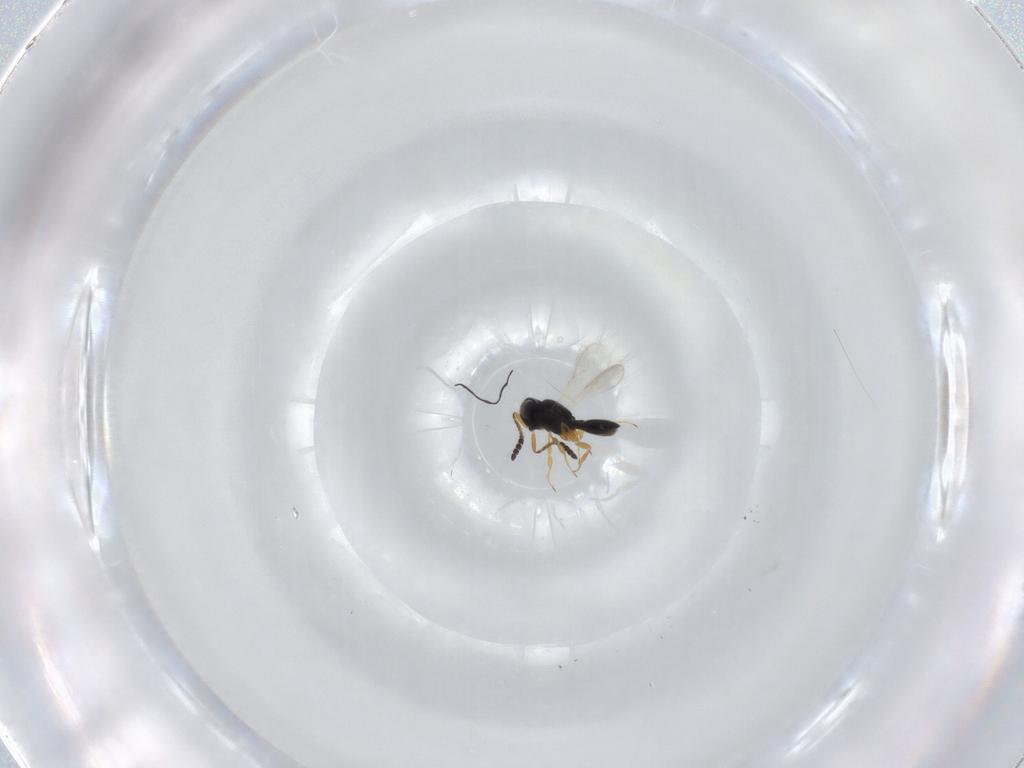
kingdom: Animalia
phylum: Arthropoda
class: Insecta
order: Hymenoptera
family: Scelionidae
